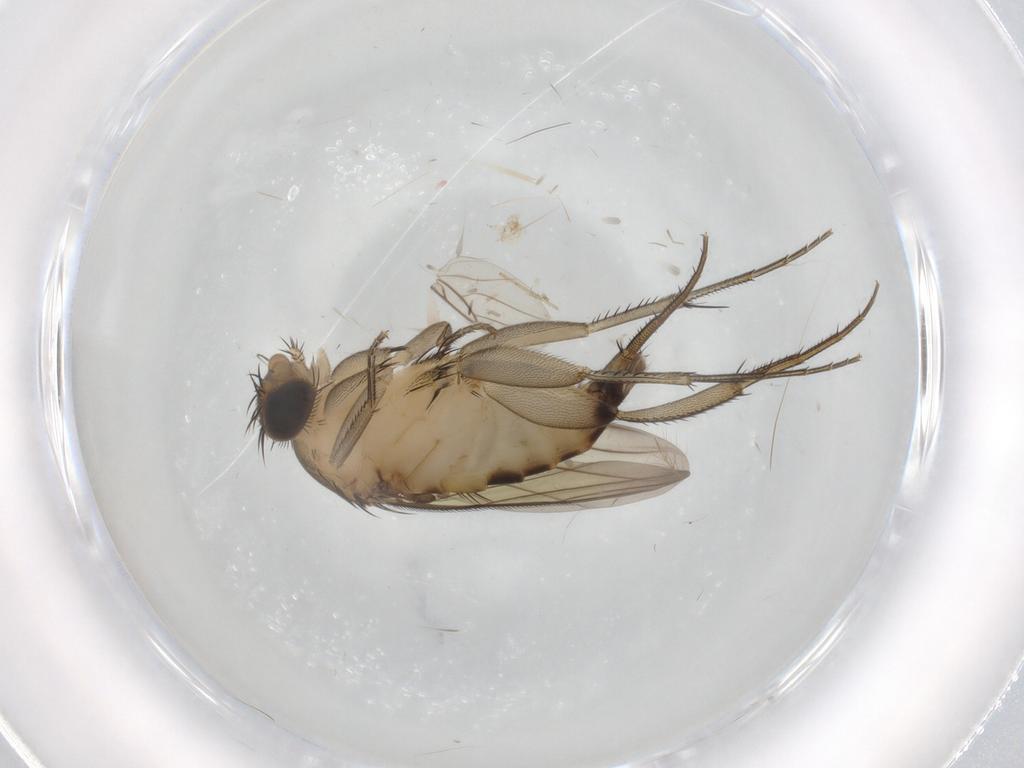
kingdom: Animalia
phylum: Arthropoda
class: Insecta
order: Diptera
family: Phoridae
